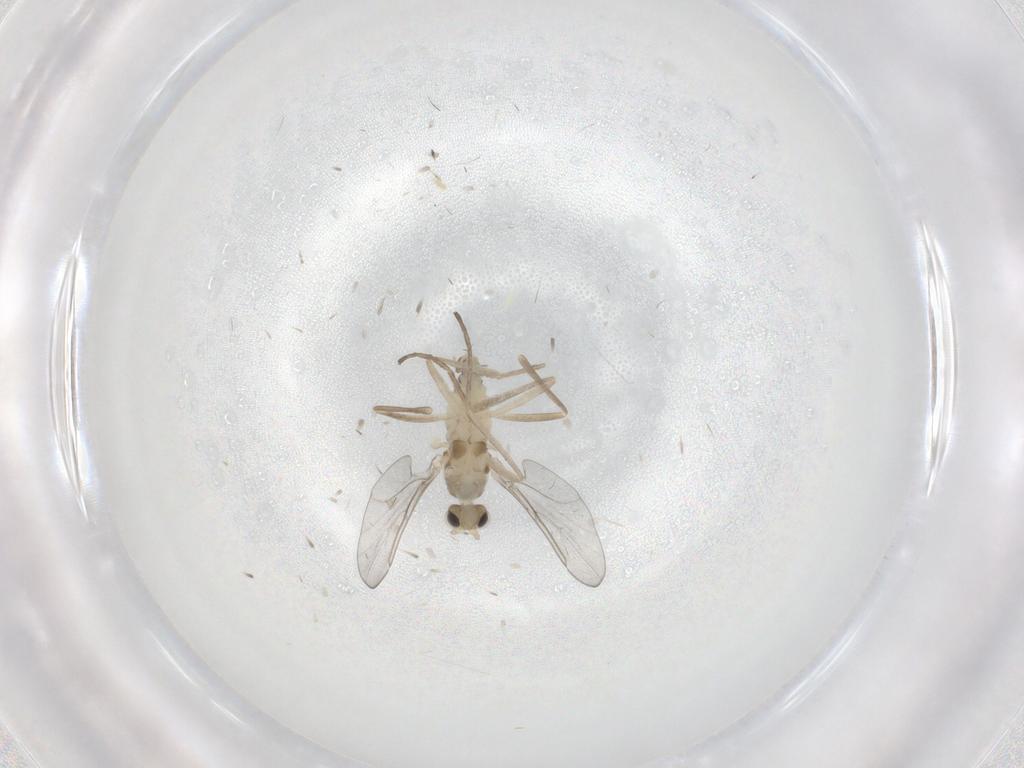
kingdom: Animalia
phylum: Arthropoda
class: Insecta
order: Diptera
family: Cecidomyiidae
